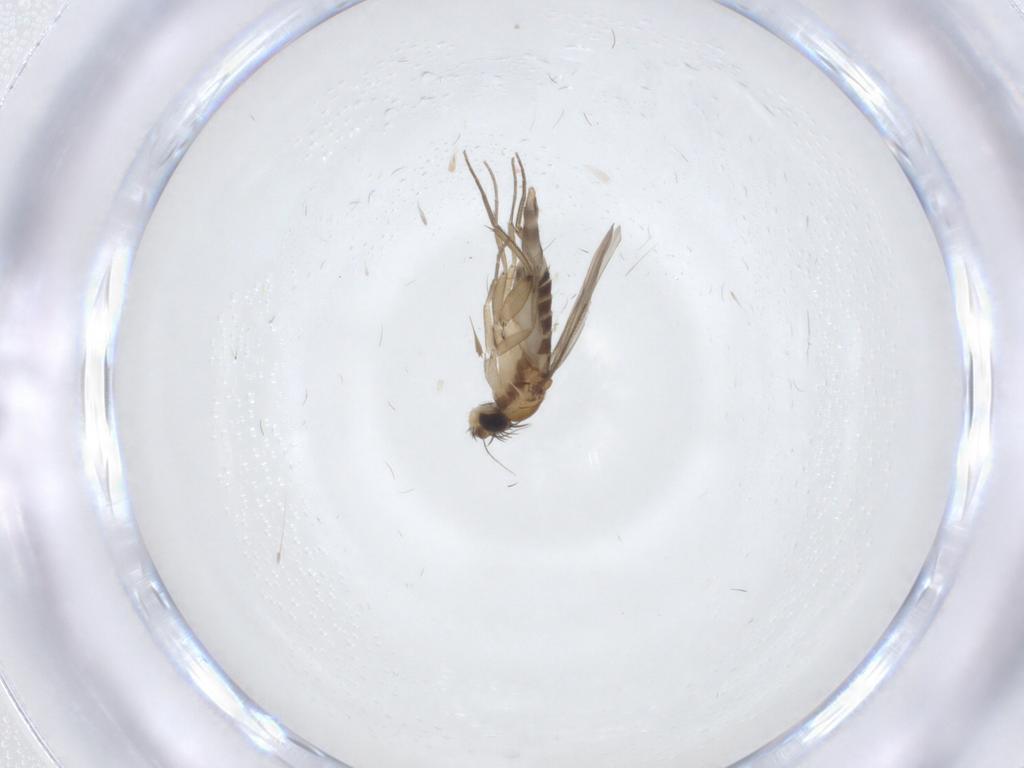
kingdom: Animalia
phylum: Arthropoda
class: Insecta
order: Diptera
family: Phoridae
